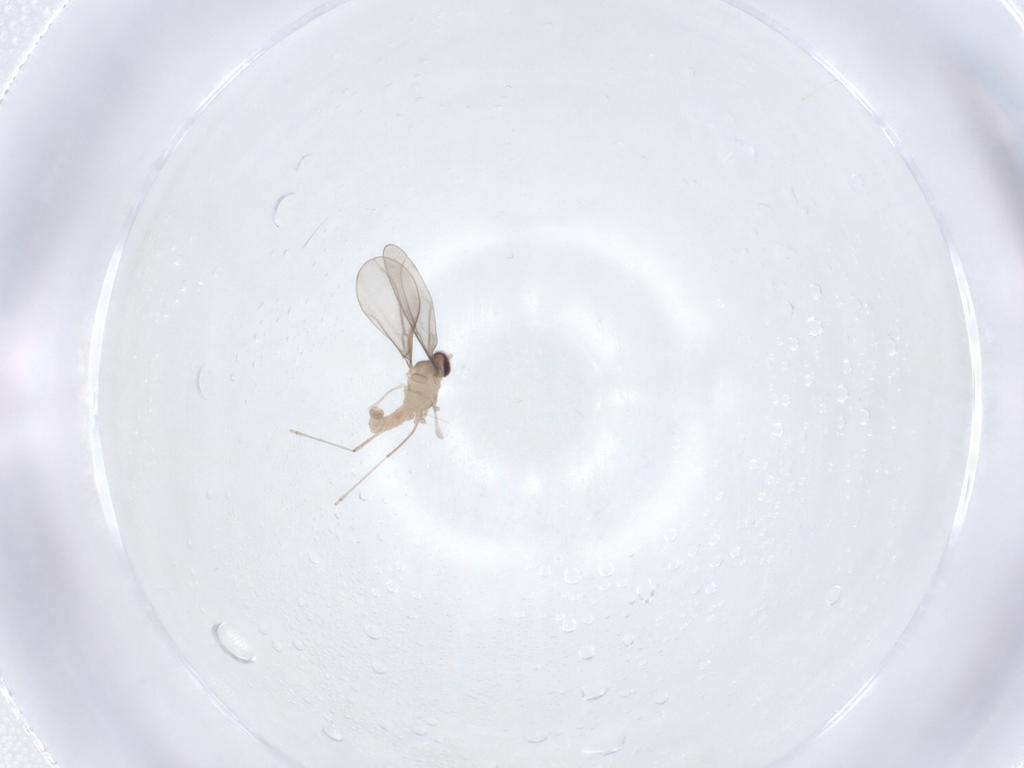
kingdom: Animalia
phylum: Arthropoda
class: Insecta
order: Diptera
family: Cecidomyiidae
